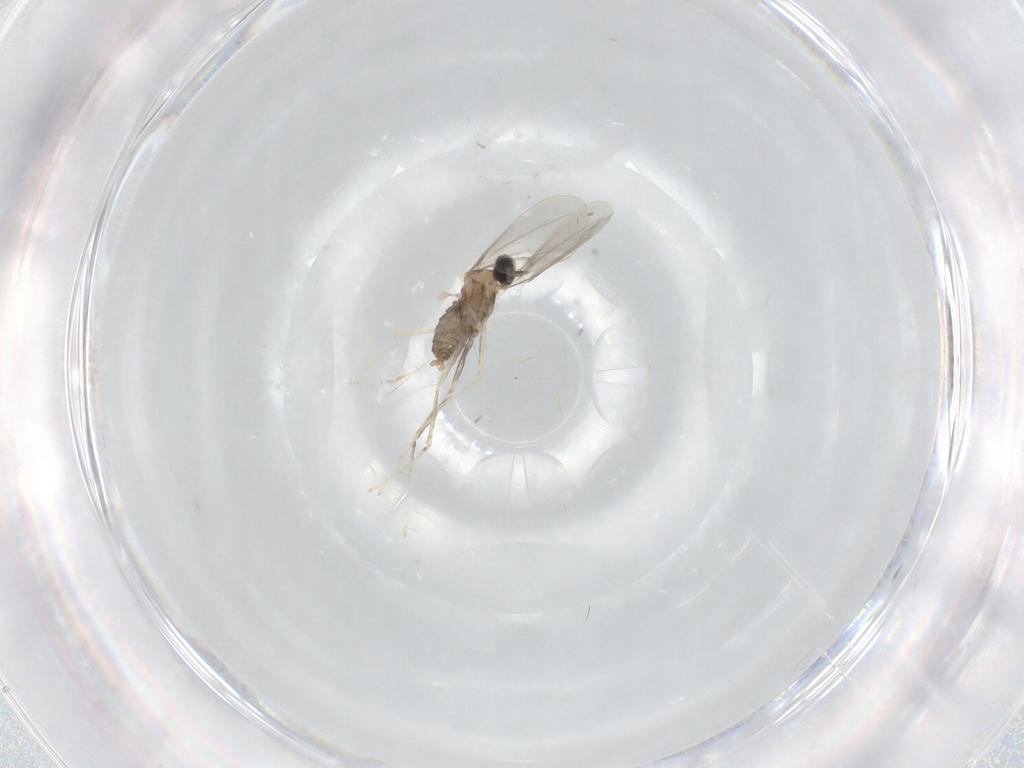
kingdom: Animalia
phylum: Arthropoda
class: Insecta
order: Diptera
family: Cecidomyiidae
